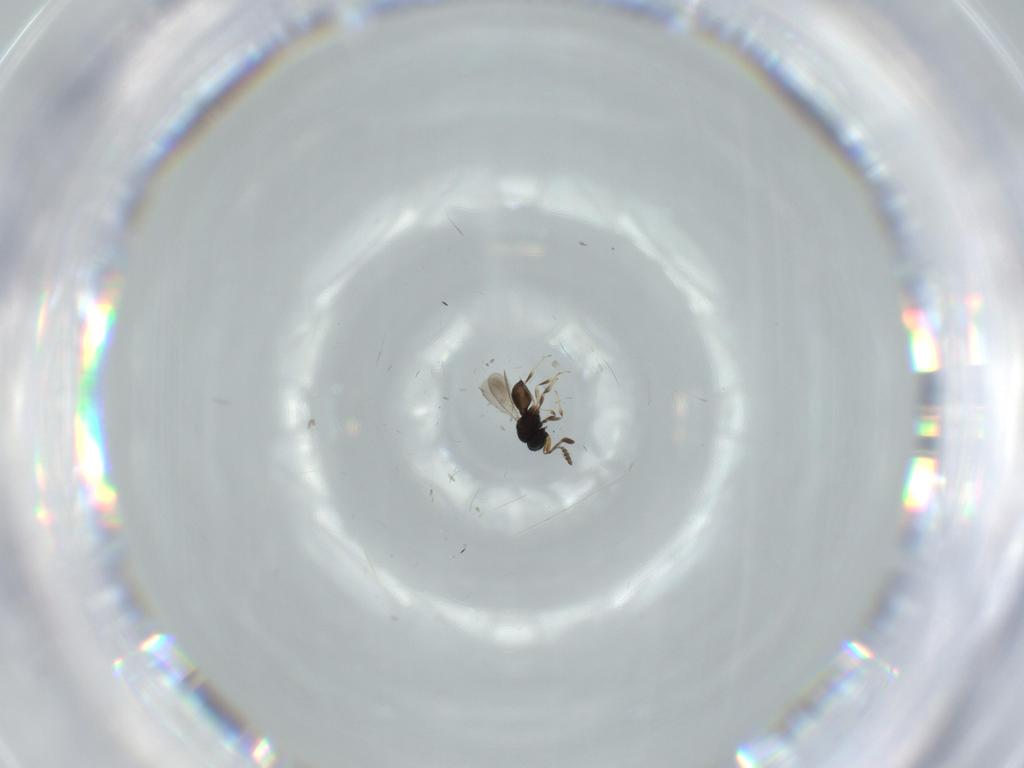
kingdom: Animalia
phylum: Arthropoda
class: Insecta
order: Hymenoptera
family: Scelionidae
